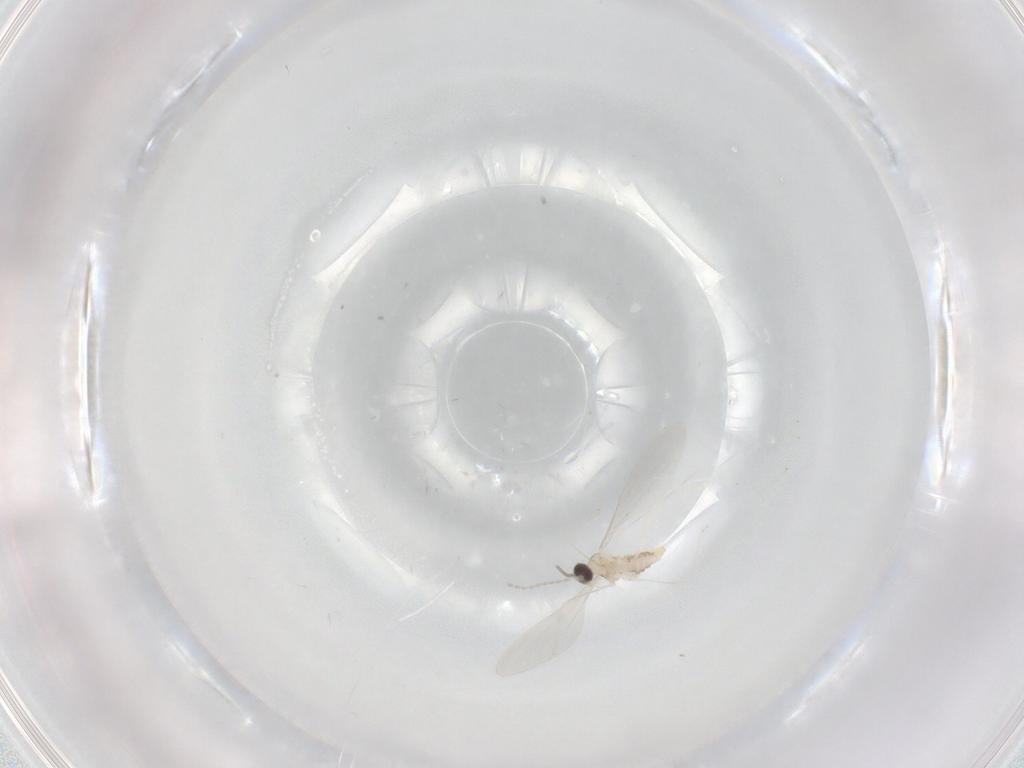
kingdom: Animalia
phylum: Arthropoda
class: Insecta
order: Diptera
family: Cecidomyiidae
